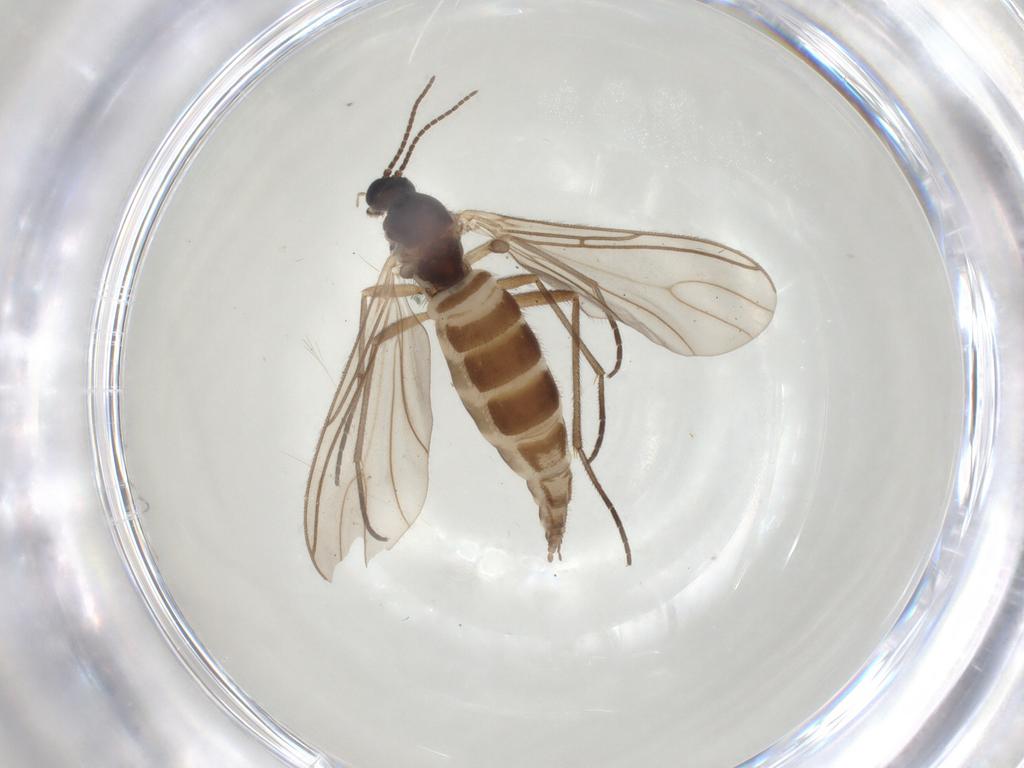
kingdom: Animalia
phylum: Arthropoda
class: Insecta
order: Diptera
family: Sciaridae
